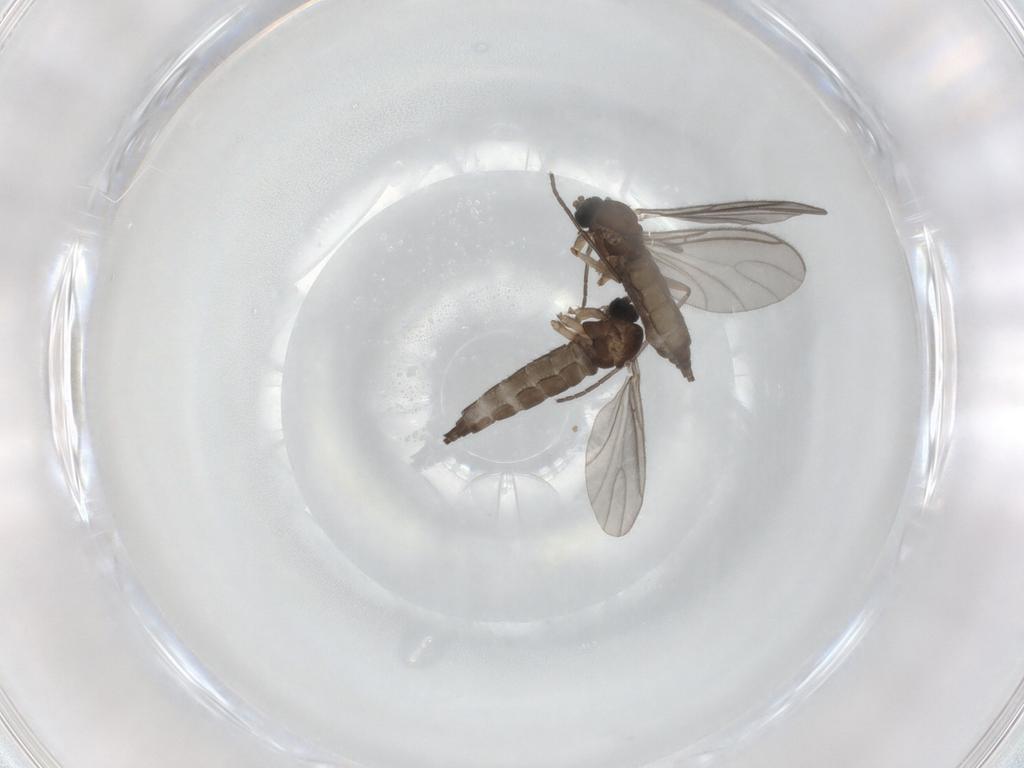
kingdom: Animalia
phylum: Arthropoda
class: Insecta
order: Diptera
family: Sciaridae
